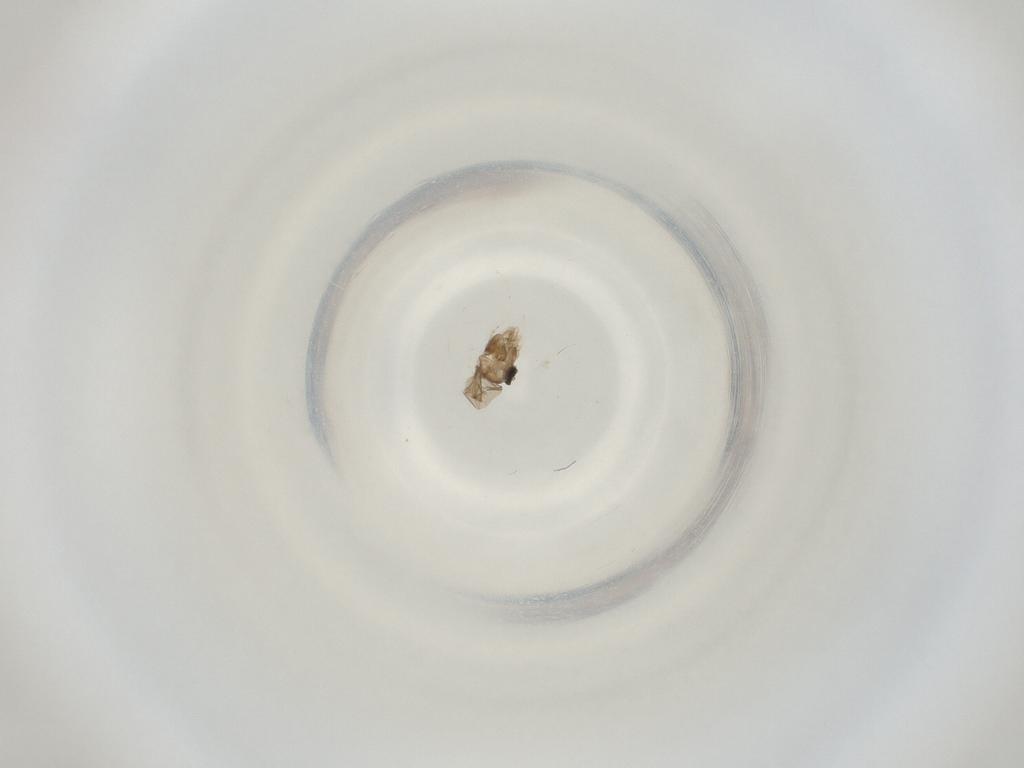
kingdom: Animalia
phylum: Arthropoda
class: Insecta
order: Diptera
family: Cecidomyiidae
